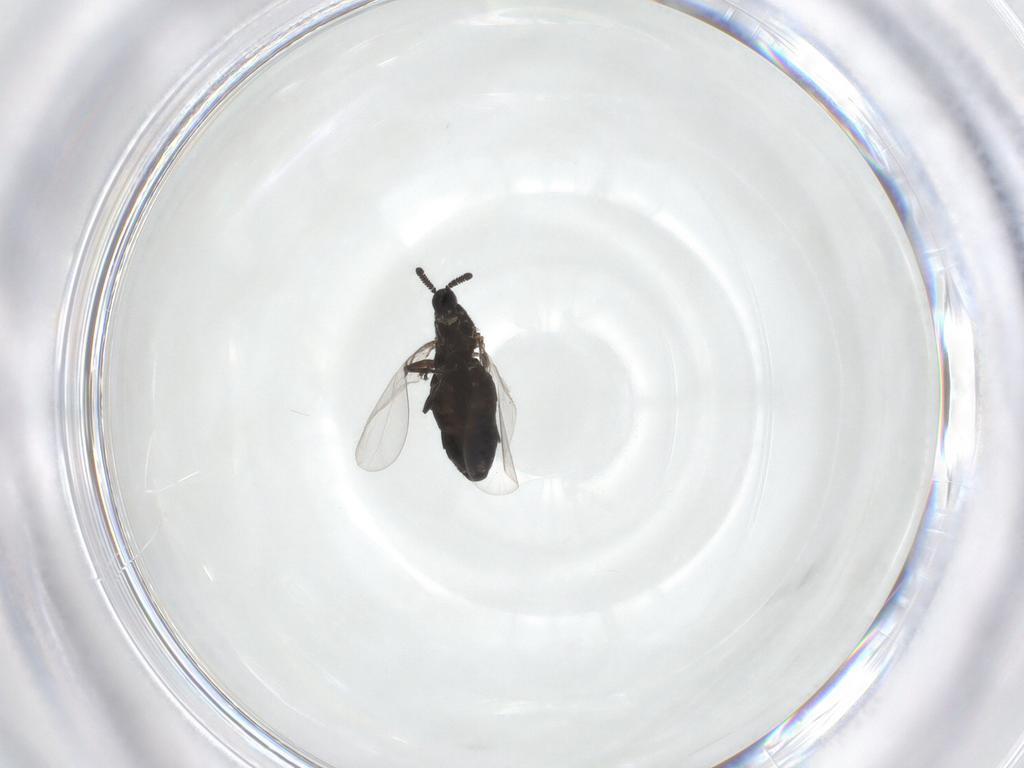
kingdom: Animalia
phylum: Arthropoda
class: Insecta
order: Diptera
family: Scatopsidae
